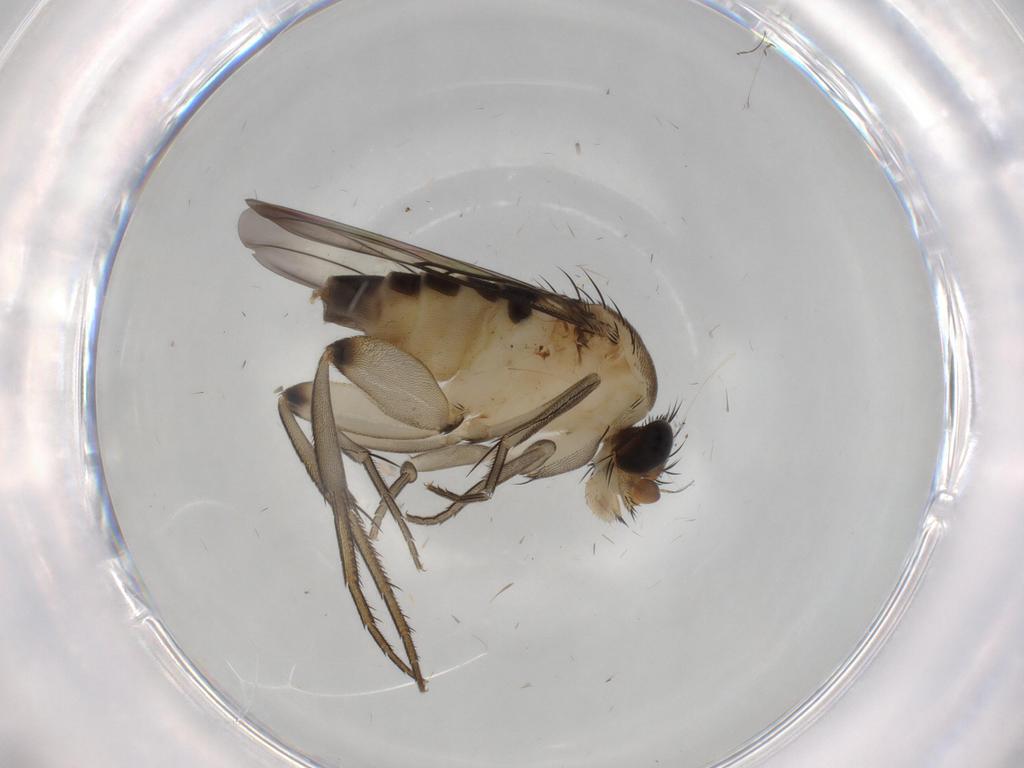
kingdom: Animalia
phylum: Arthropoda
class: Insecta
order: Diptera
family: Phoridae
